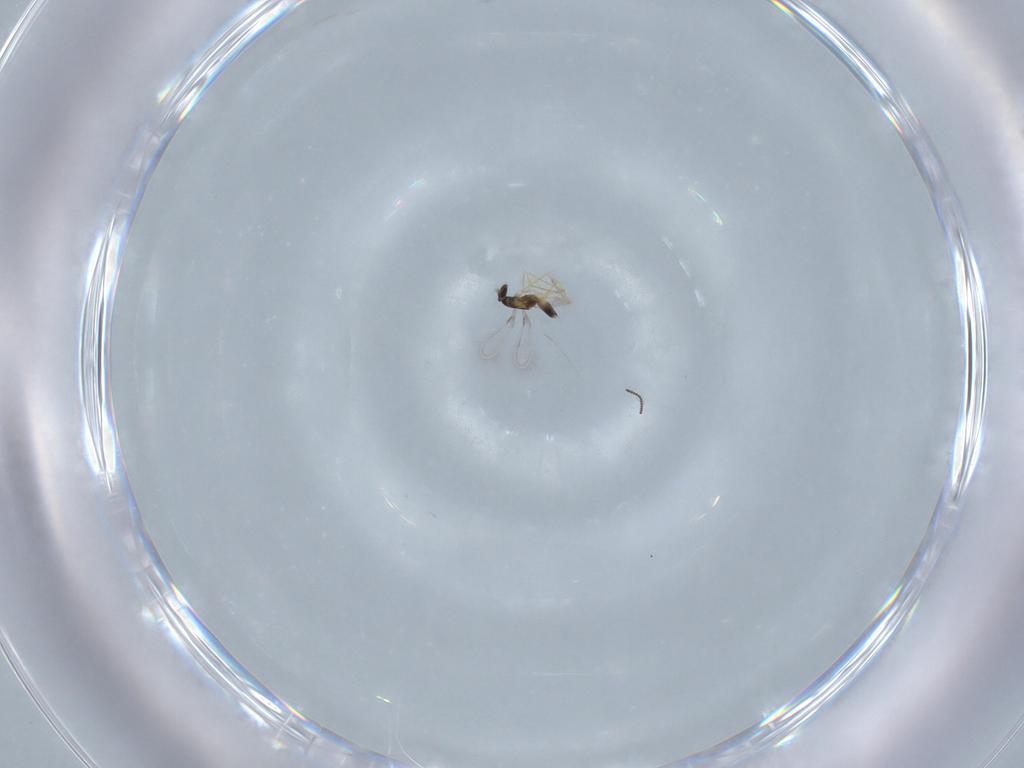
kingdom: Animalia
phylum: Arthropoda
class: Insecta
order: Hymenoptera
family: Mymaridae
